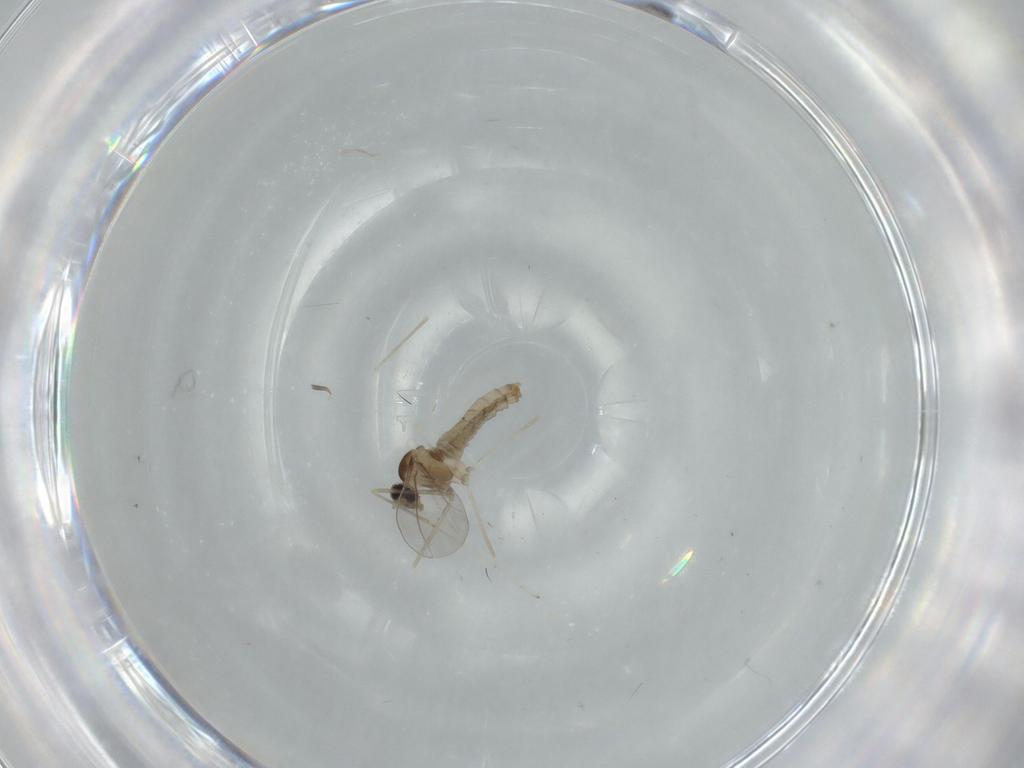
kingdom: Animalia
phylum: Arthropoda
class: Insecta
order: Diptera
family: Cecidomyiidae
